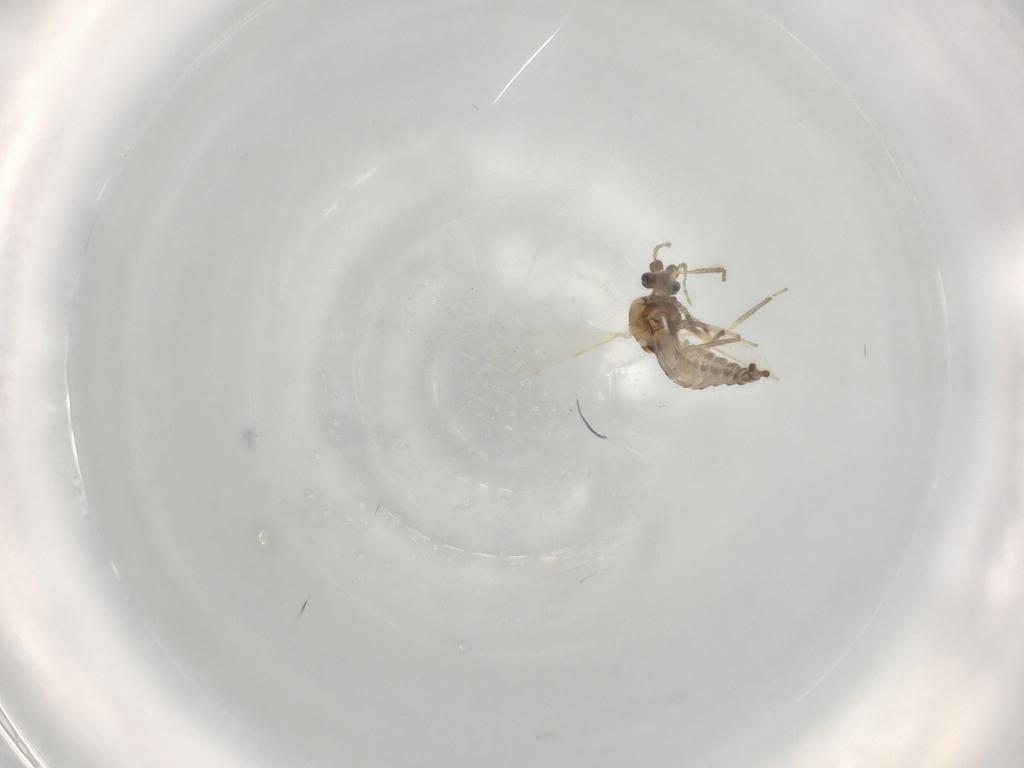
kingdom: Animalia
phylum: Arthropoda
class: Insecta
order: Diptera
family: Ceratopogonidae
